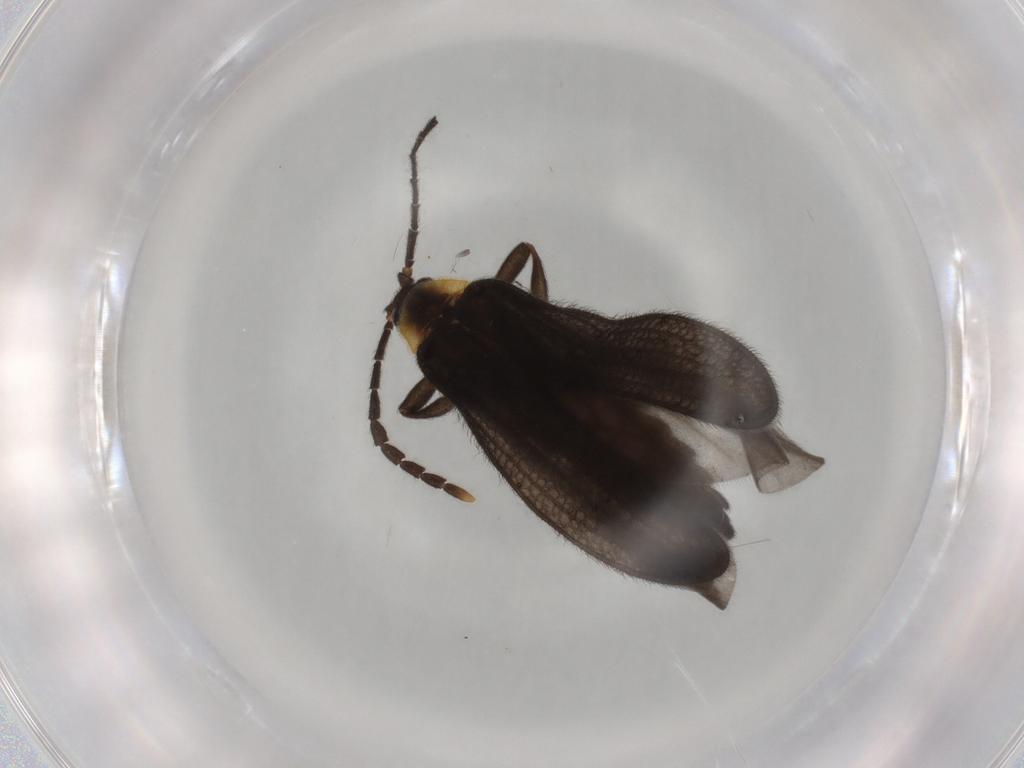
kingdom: Animalia
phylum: Arthropoda
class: Insecta
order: Coleoptera
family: Lycidae
